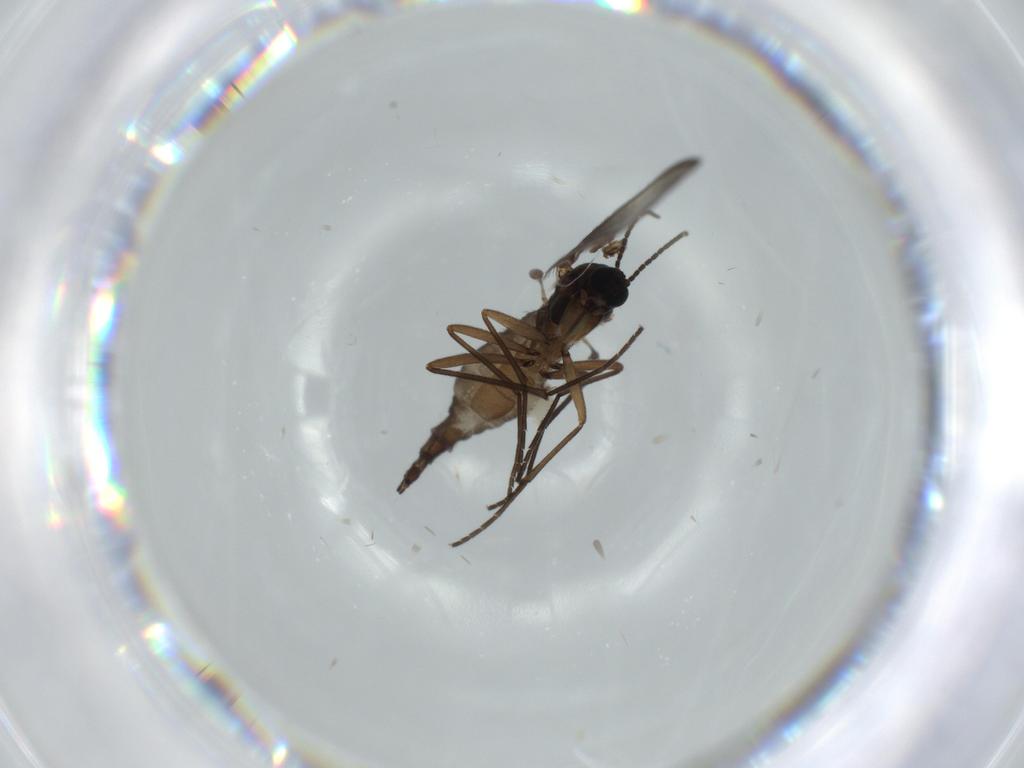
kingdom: Animalia
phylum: Arthropoda
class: Insecta
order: Diptera
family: Sciaridae
